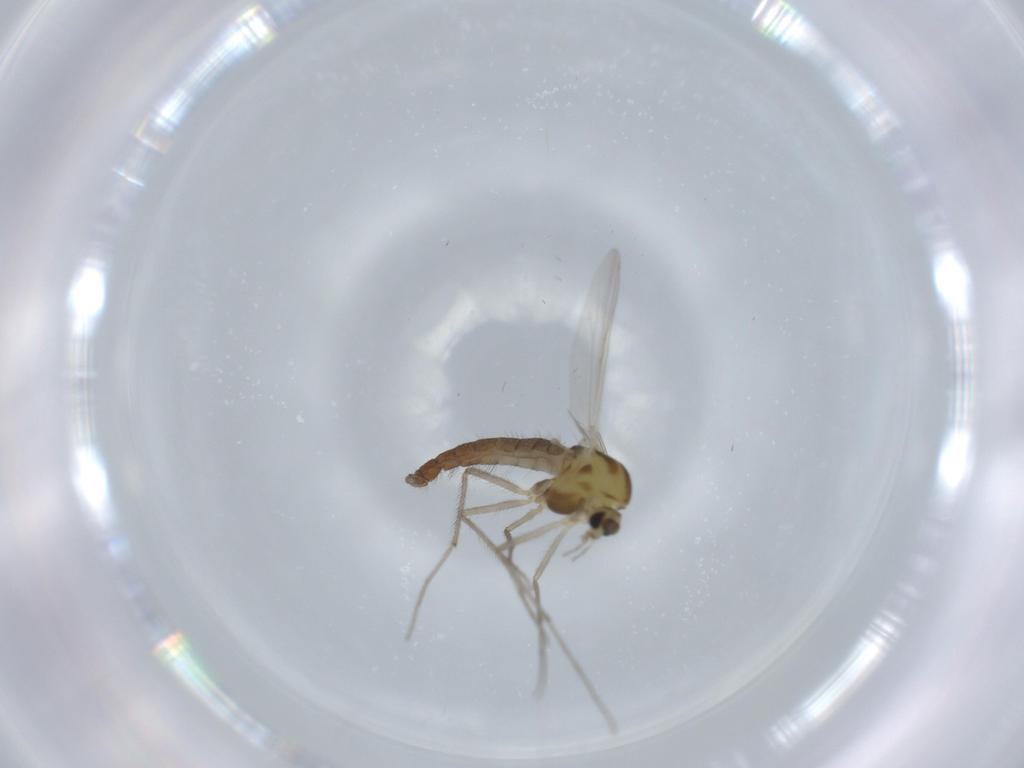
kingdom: Animalia
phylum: Arthropoda
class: Insecta
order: Diptera
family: Chironomidae
